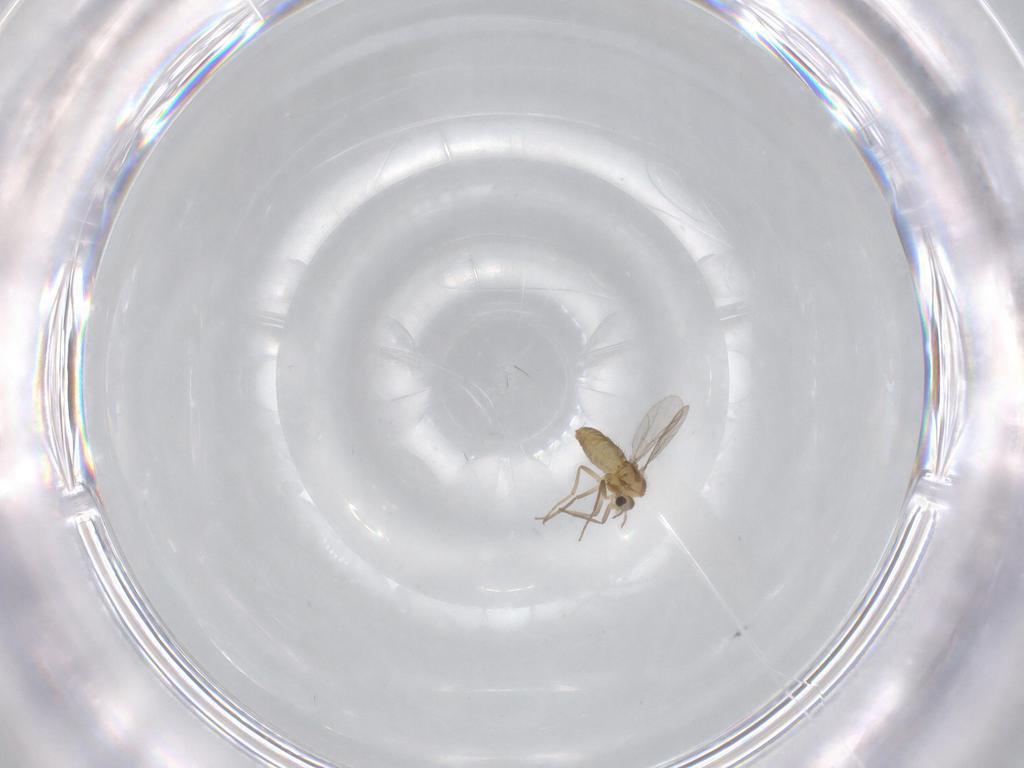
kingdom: Animalia
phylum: Arthropoda
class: Insecta
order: Diptera
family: Chironomidae
